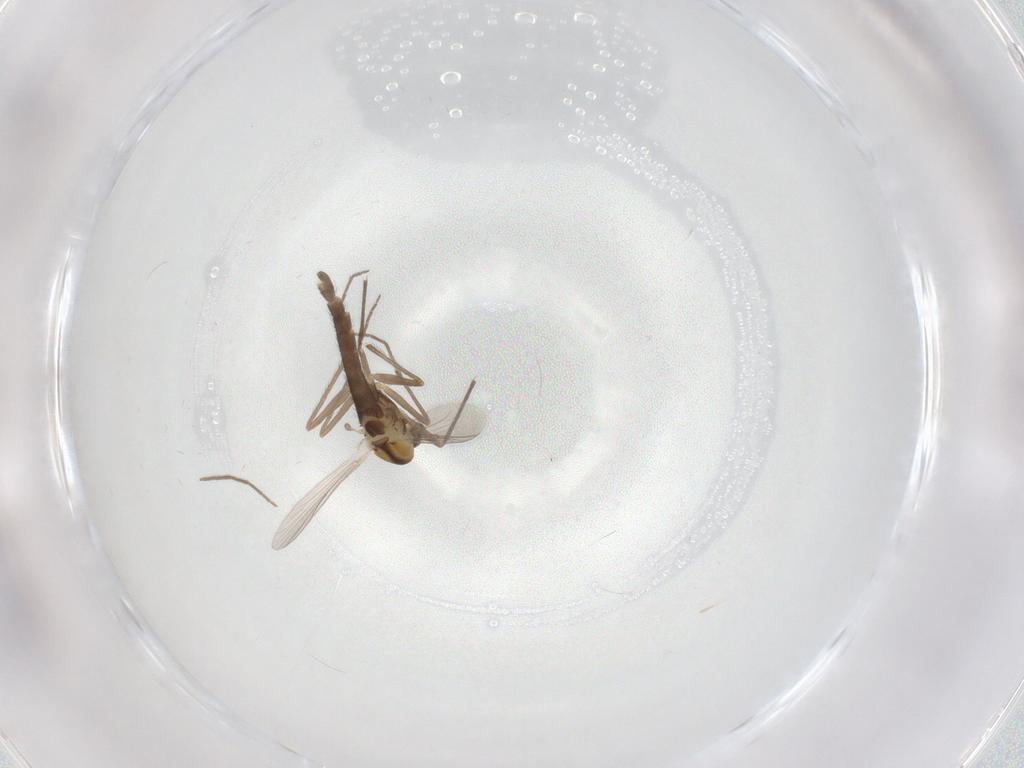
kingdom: Animalia
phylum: Arthropoda
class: Insecta
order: Diptera
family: Chironomidae
